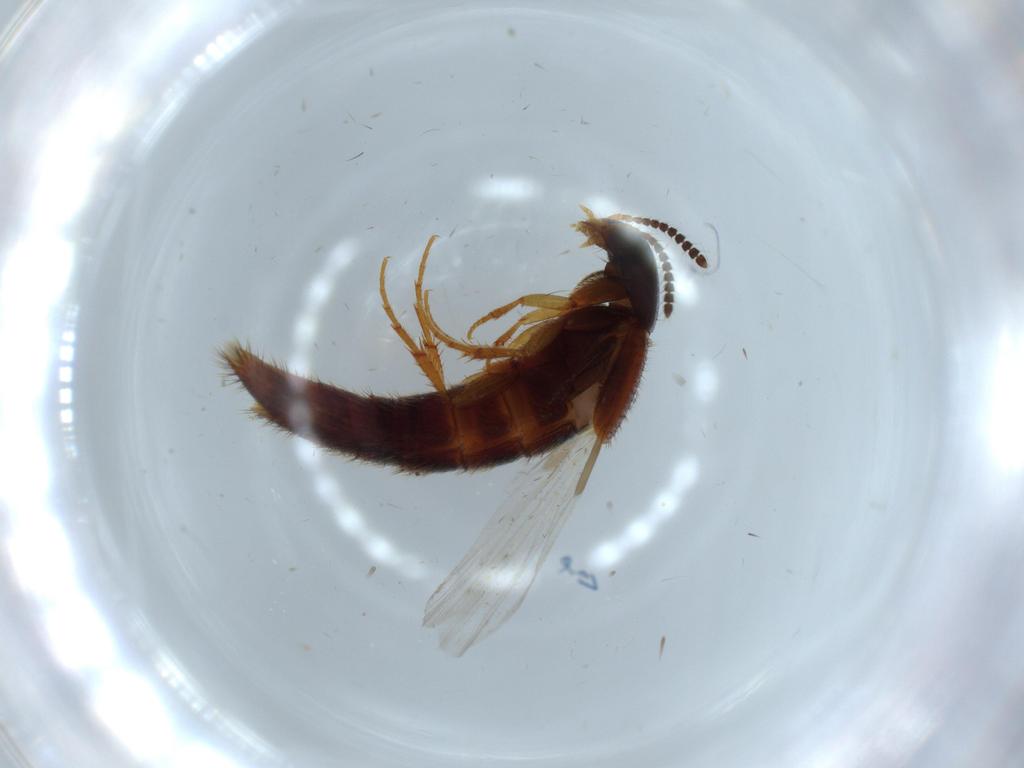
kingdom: Animalia
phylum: Arthropoda
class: Insecta
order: Coleoptera
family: Staphylinidae
